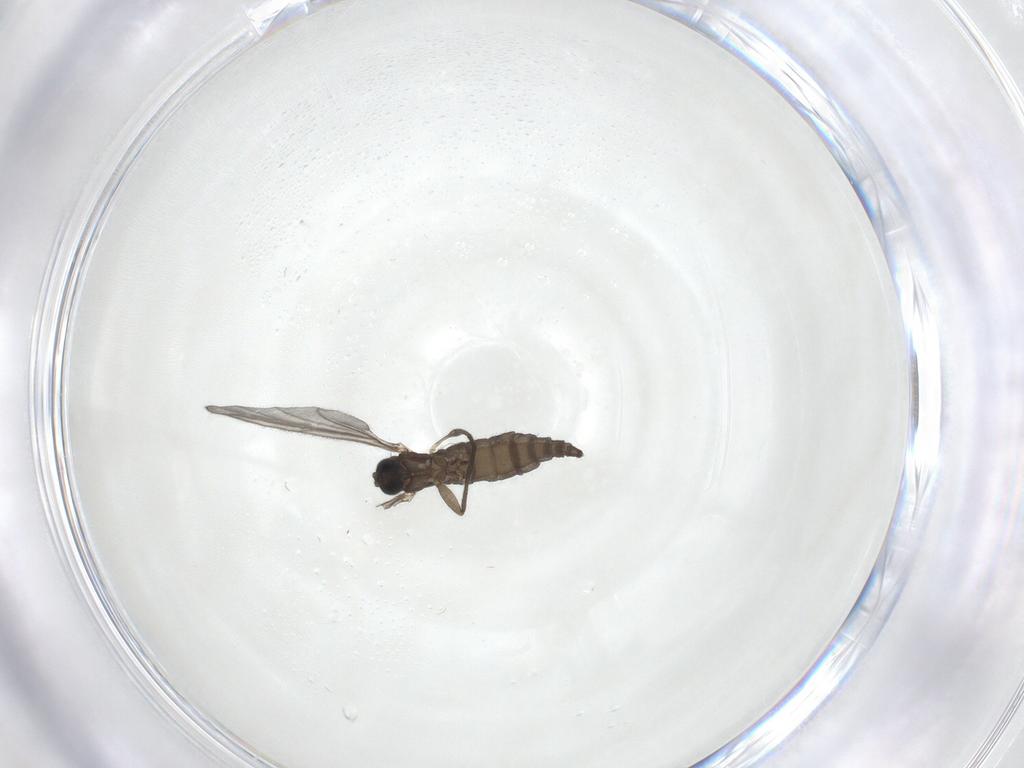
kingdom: Animalia
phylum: Arthropoda
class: Insecta
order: Diptera
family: Sciaridae
